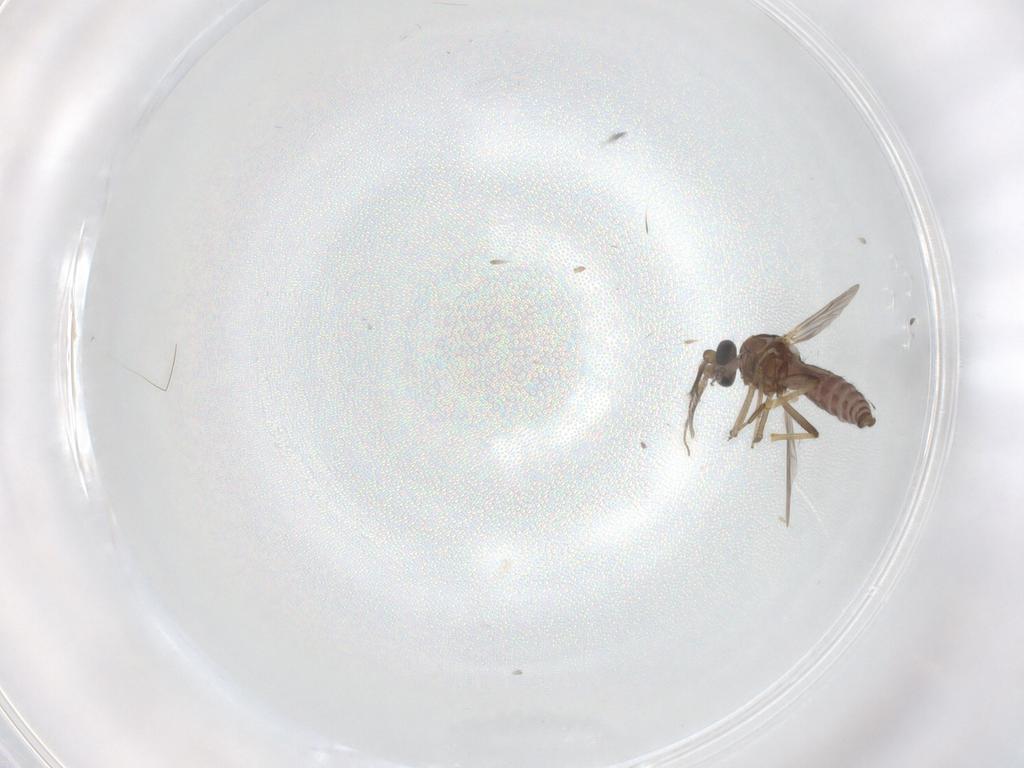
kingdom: Animalia
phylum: Arthropoda
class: Insecta
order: Diptera
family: Ceratopogonidae
